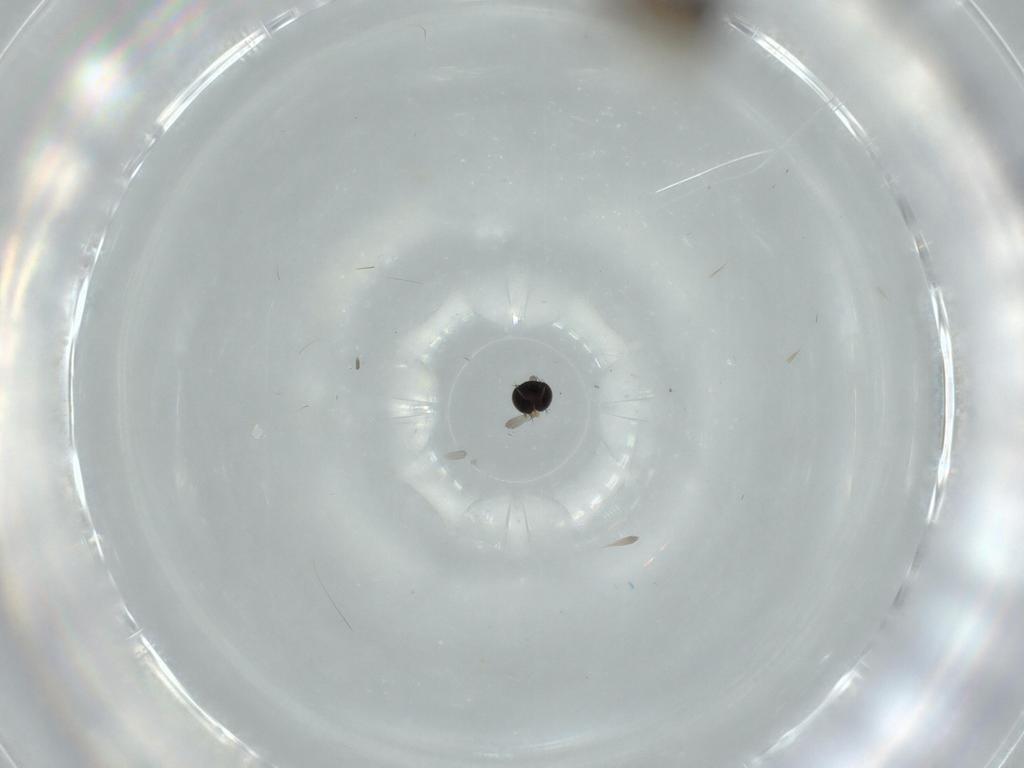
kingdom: Animalia
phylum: Arthropoda
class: Insecta
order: Diptera
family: Phoridae
